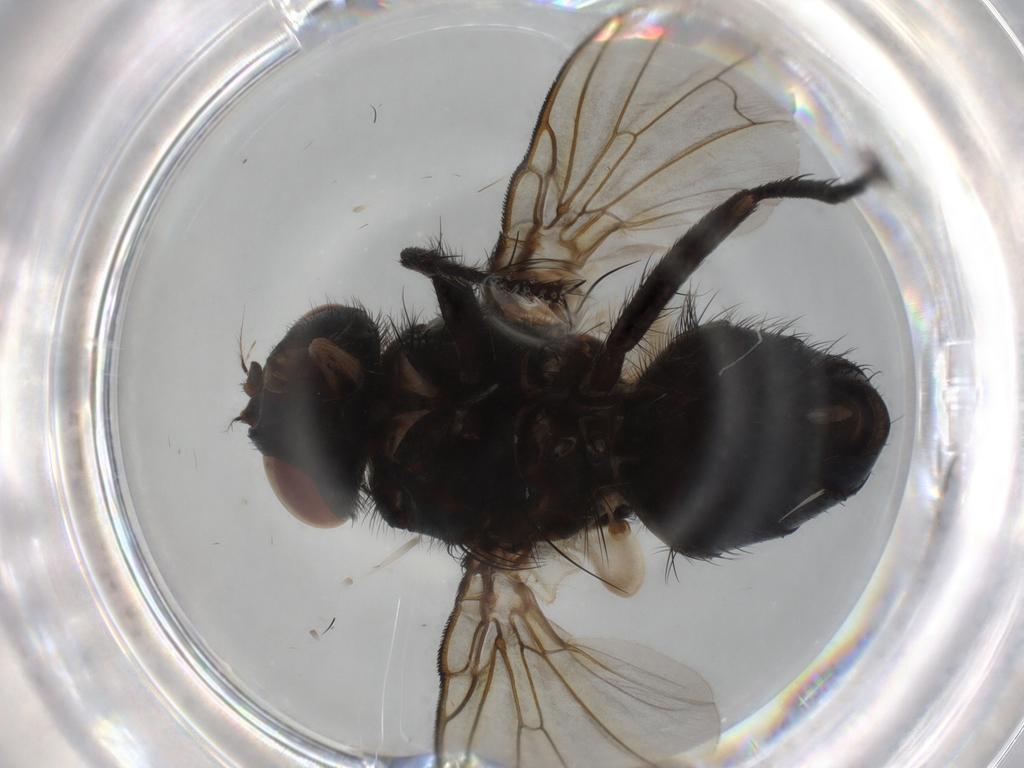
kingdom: Animalia
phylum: Arthropoda
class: Insecta
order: Diptera
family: Calliphoridae
